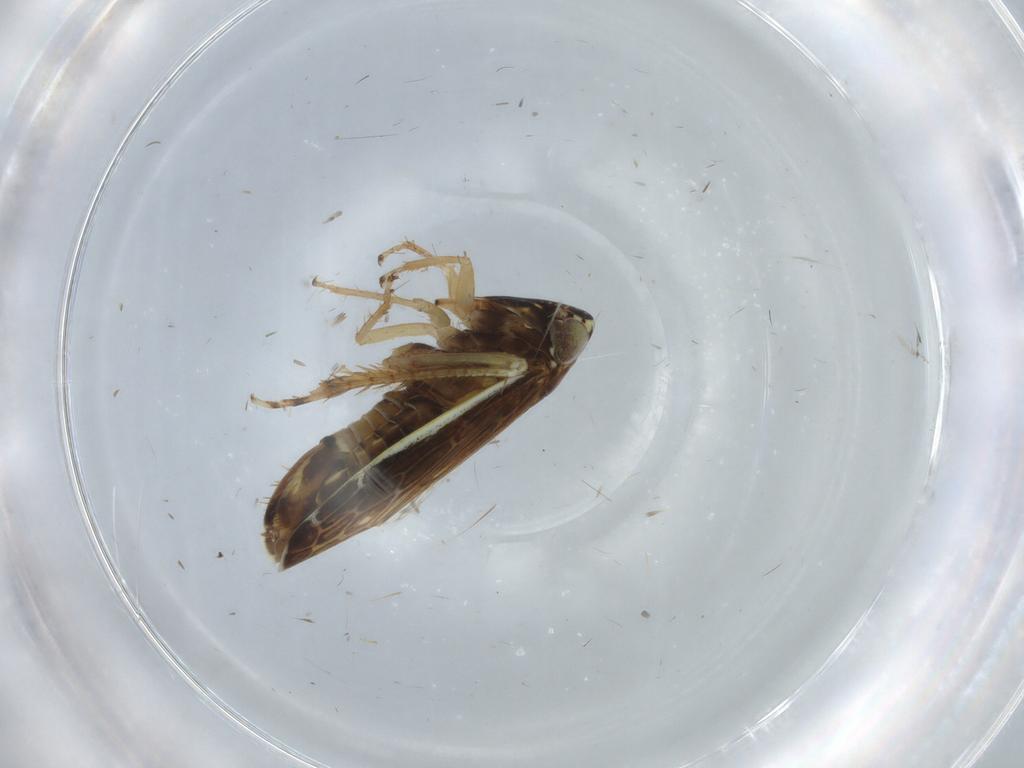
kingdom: Animalia
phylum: Arthropoda
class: Insecta
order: Hemiptera
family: Cicadellidae
